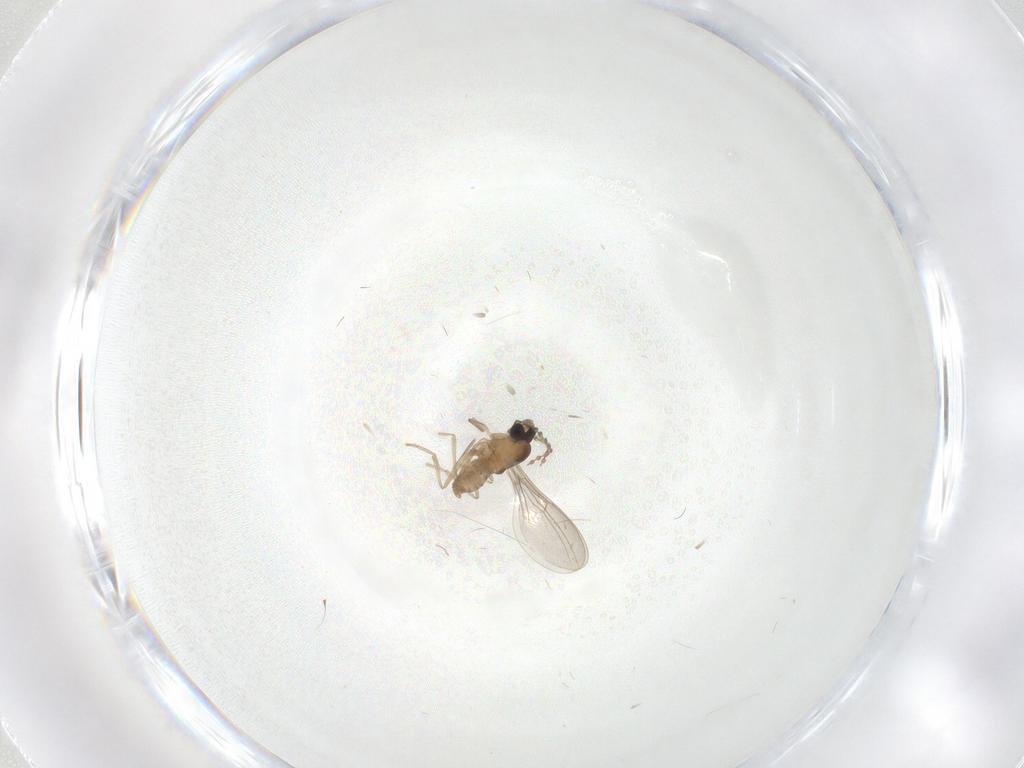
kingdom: Animalia
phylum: Arthropoda
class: Insecta
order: Diptera
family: Cecidomyiidae
